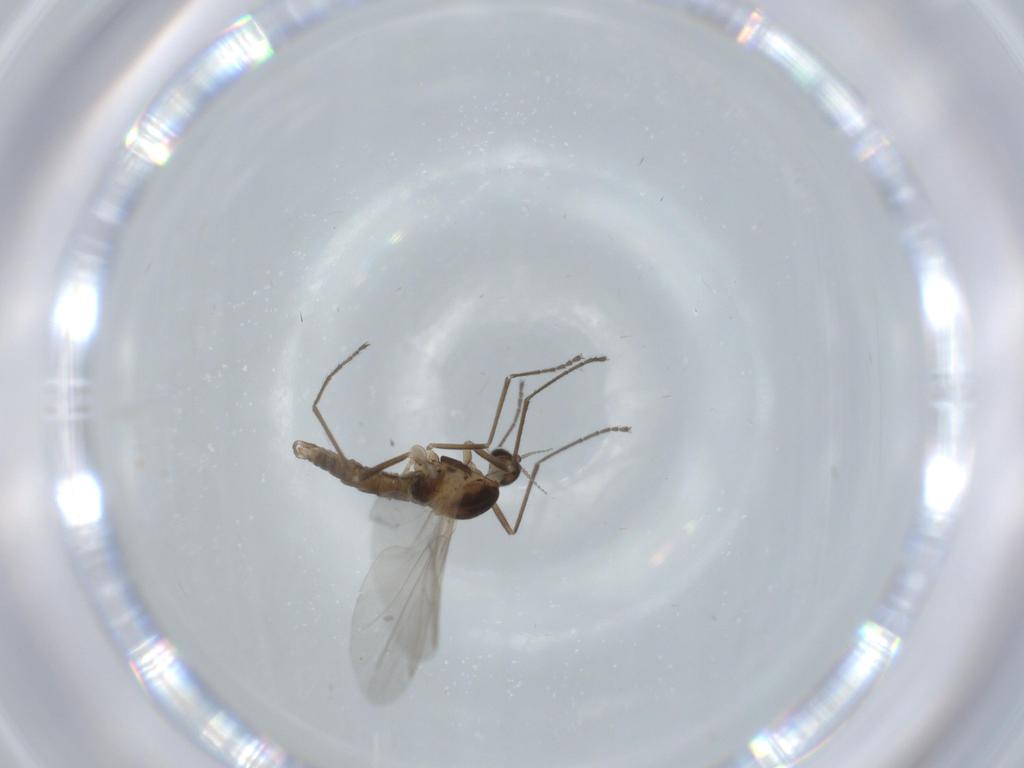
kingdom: Animalia
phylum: Arthropoda
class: Insecta
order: Diptera
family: Cecidomyiidae
